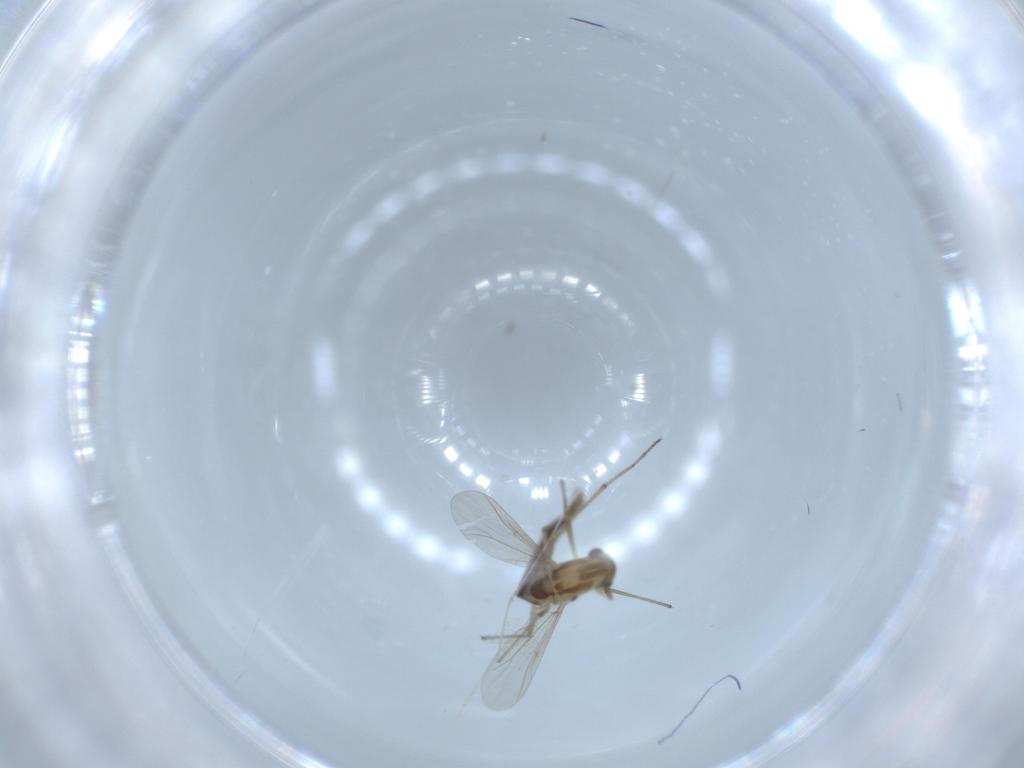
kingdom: Animalia
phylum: Arthropoda
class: Insecta
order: Diptera
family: Chironomidae
